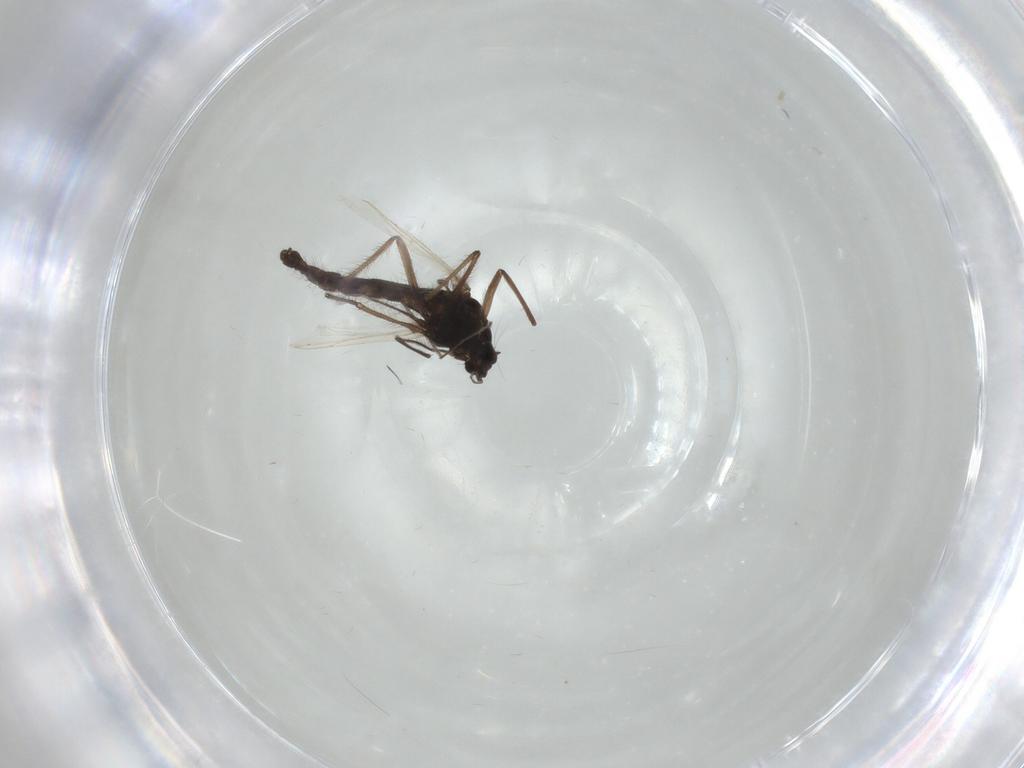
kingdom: Animalia
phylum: Arthropoda
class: Insecta
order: Diptera
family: Chironomidae
